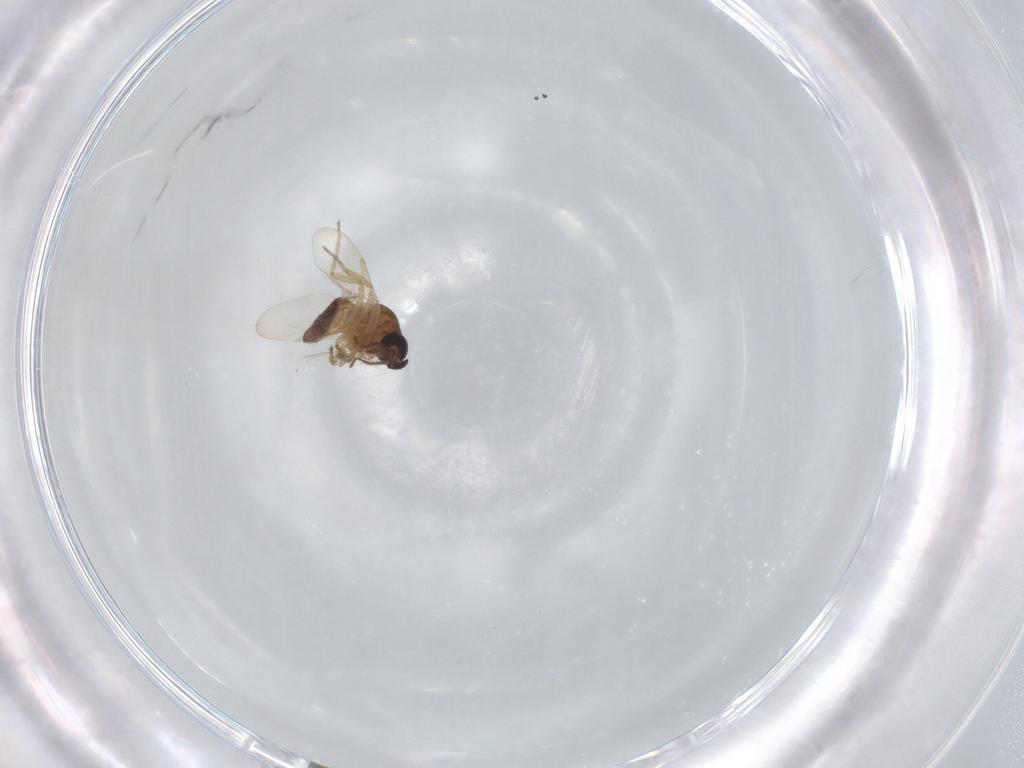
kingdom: Animalia
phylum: Arthropoda
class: Insecta
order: Diptera
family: Ceratopogonidae
